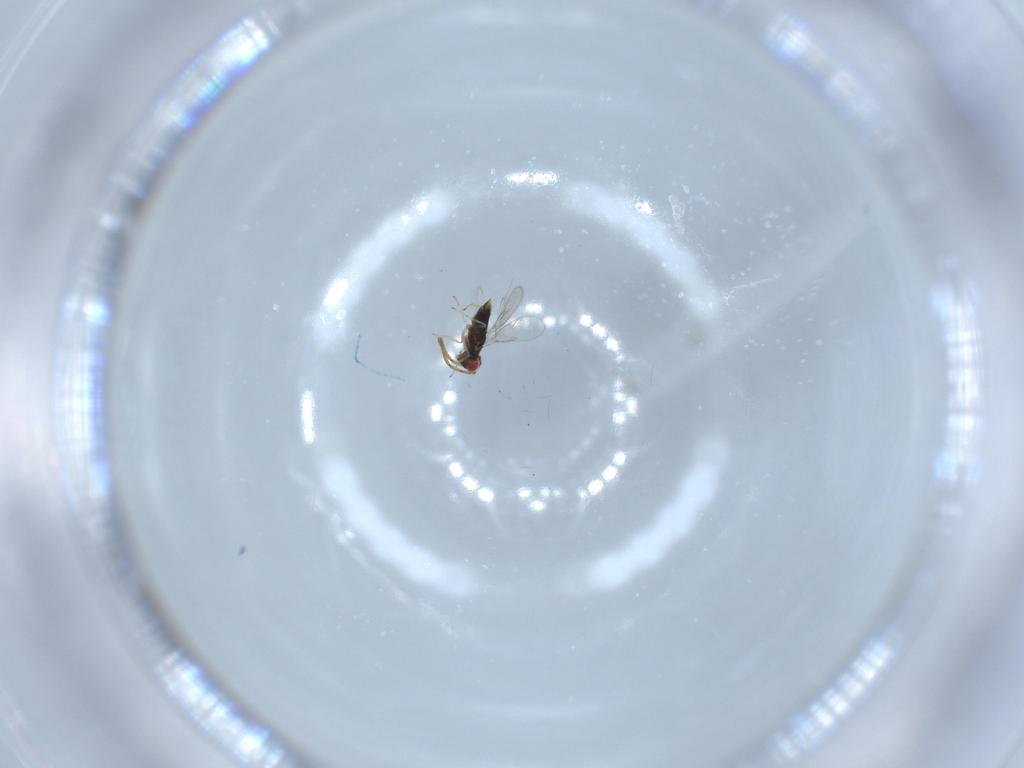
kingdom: Animalia
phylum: Arthropoda
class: Insecta
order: Hymenoptera
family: Azotidae
